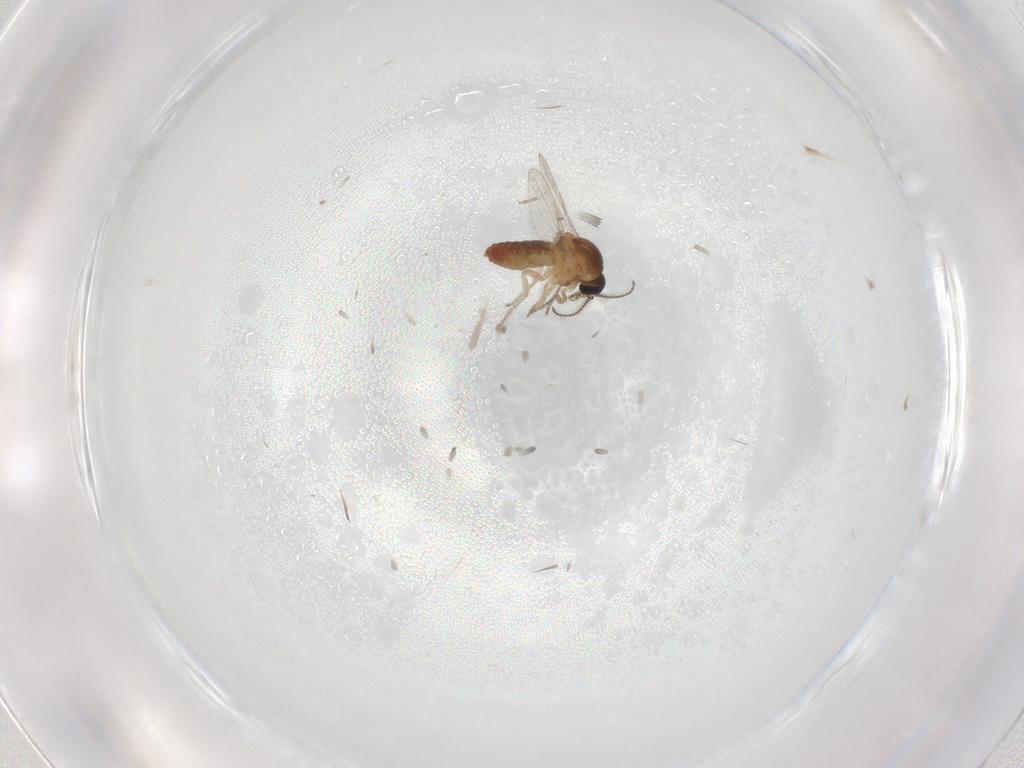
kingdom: Animalia
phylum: Arthropoda
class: Insecta
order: Diptera
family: Ceratopogonidae
